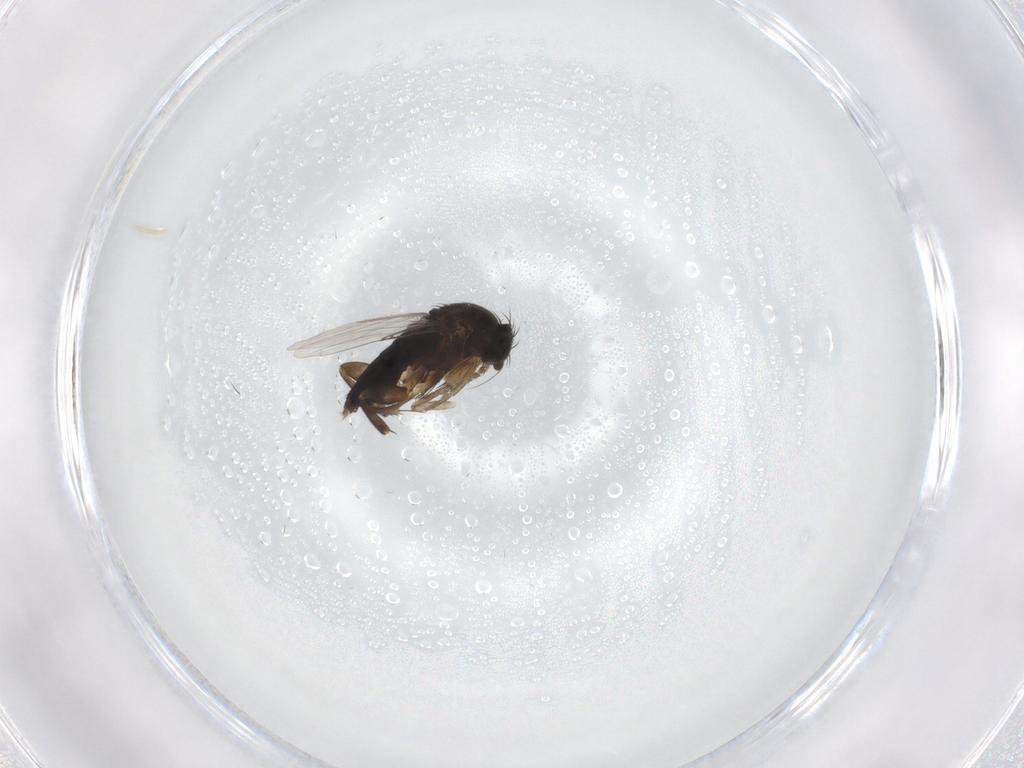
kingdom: Animalia
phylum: Arthropoda
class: Insecta
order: Diptera
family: Phoridae
